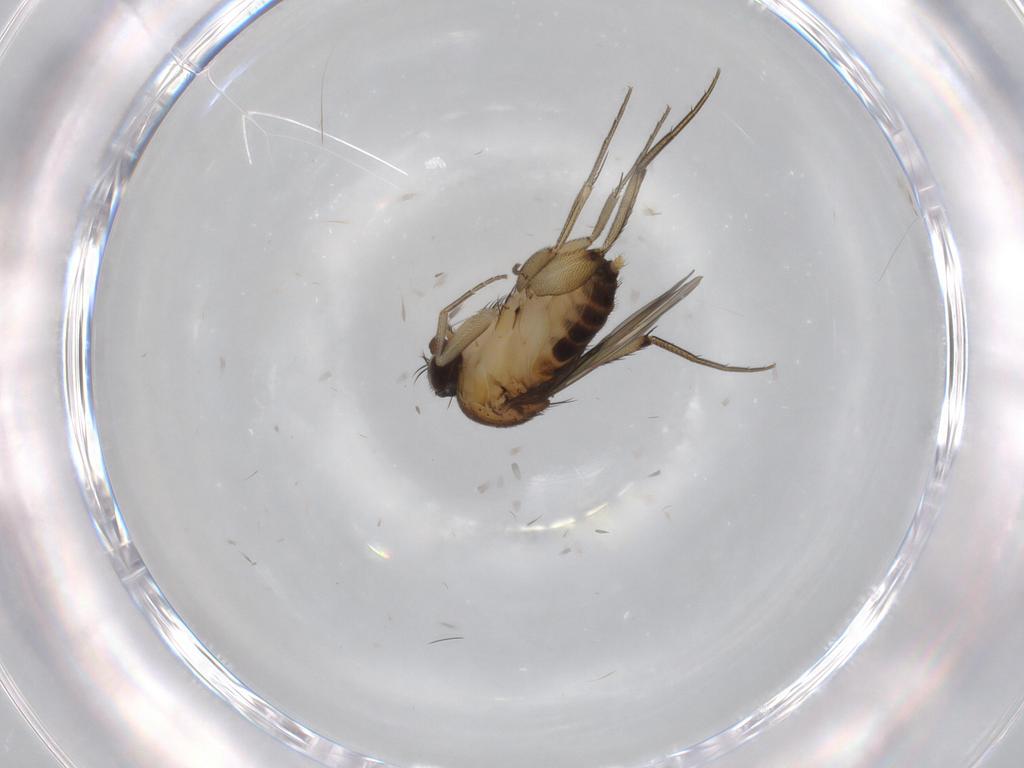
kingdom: Animalia
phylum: Arthropoda
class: Insecta
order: Diptera
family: Phoridae
